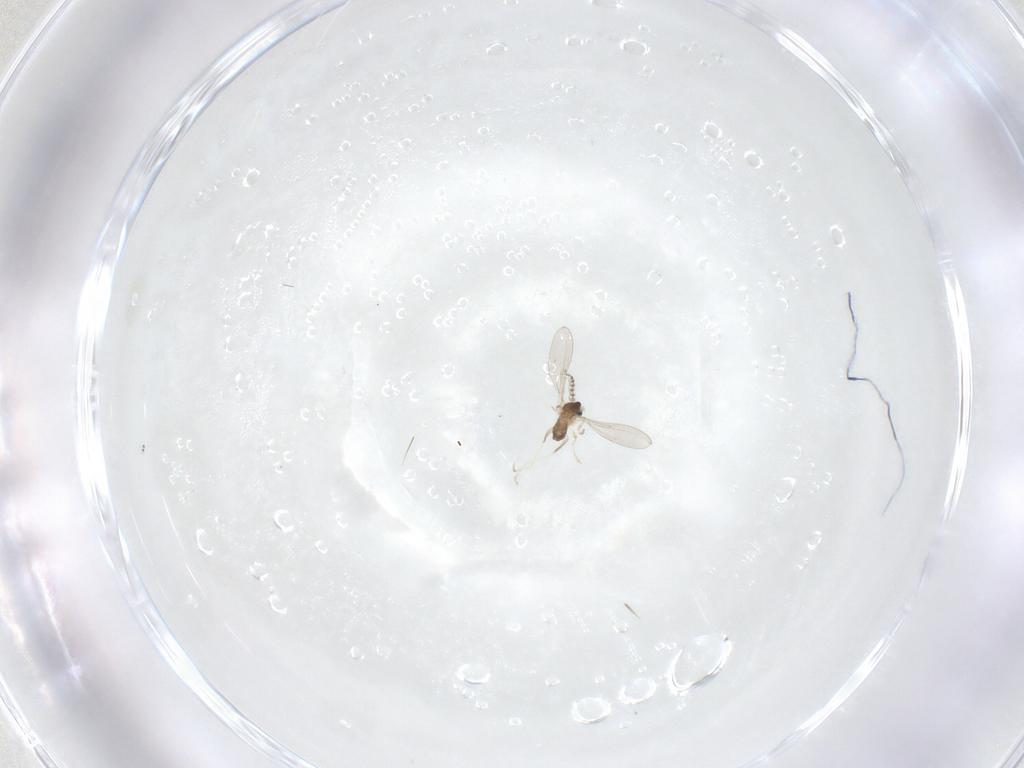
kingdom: Animalia
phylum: Arthropoda
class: Insecta
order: Diptera
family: Cecidomyiidae
